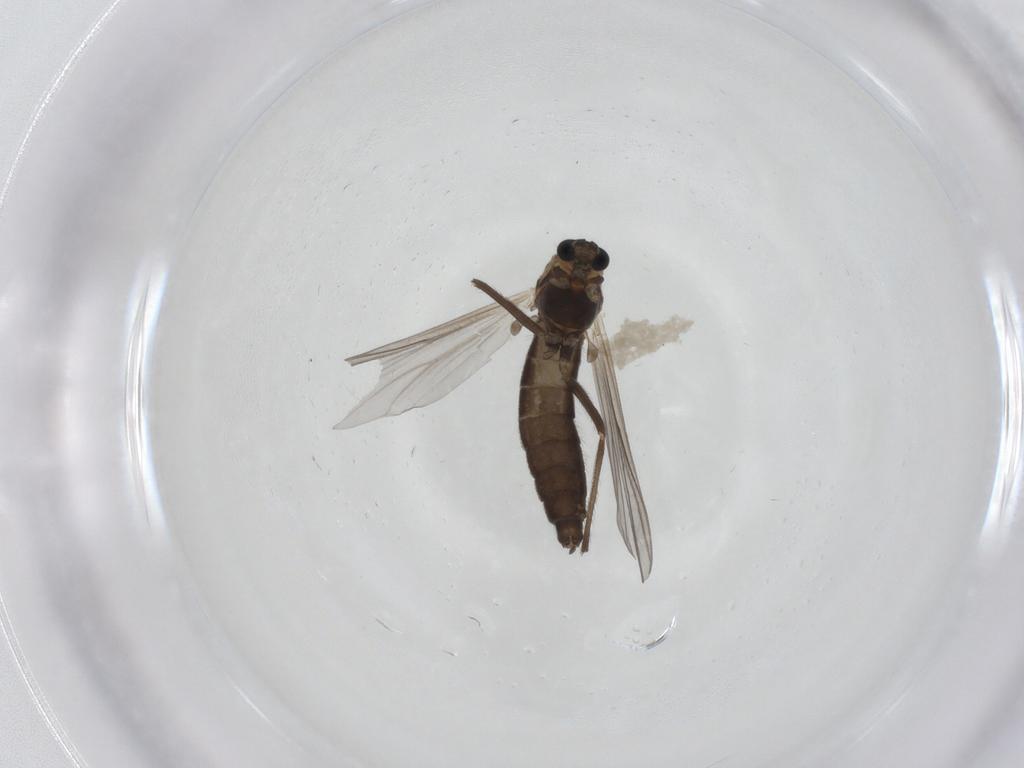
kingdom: Animalia
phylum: Arthropoda
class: Insecta
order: Diptera
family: Chironomidae
